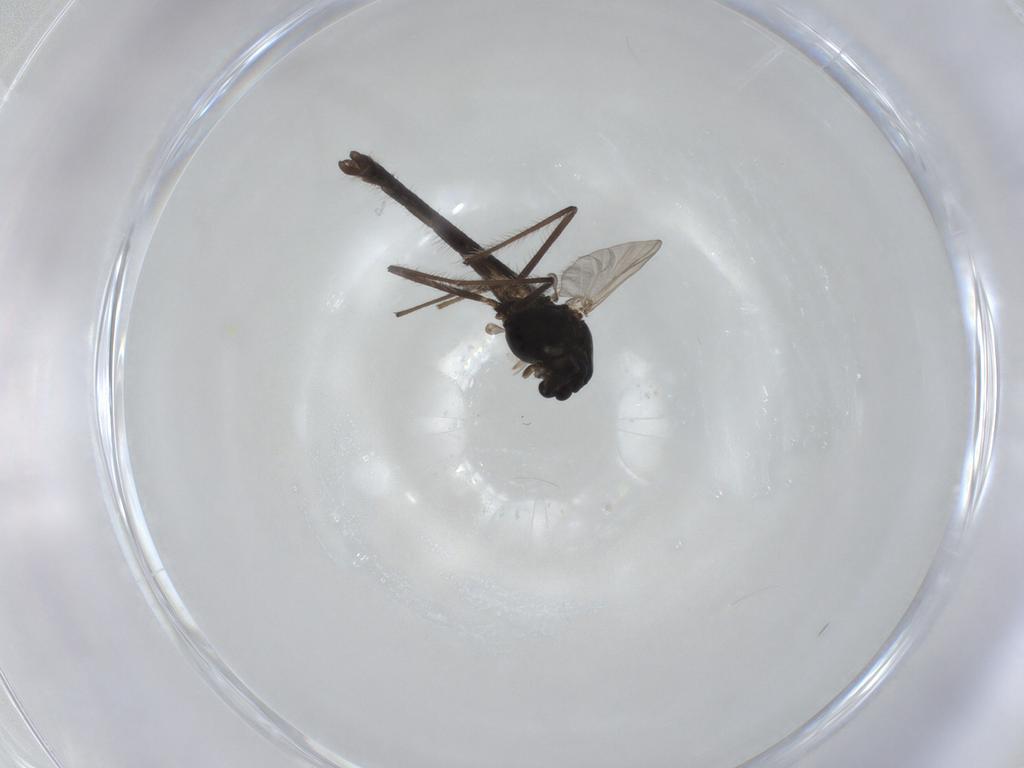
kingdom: Animalia
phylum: Arthropoda
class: Insecta
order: Diptera
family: Chironomidae
